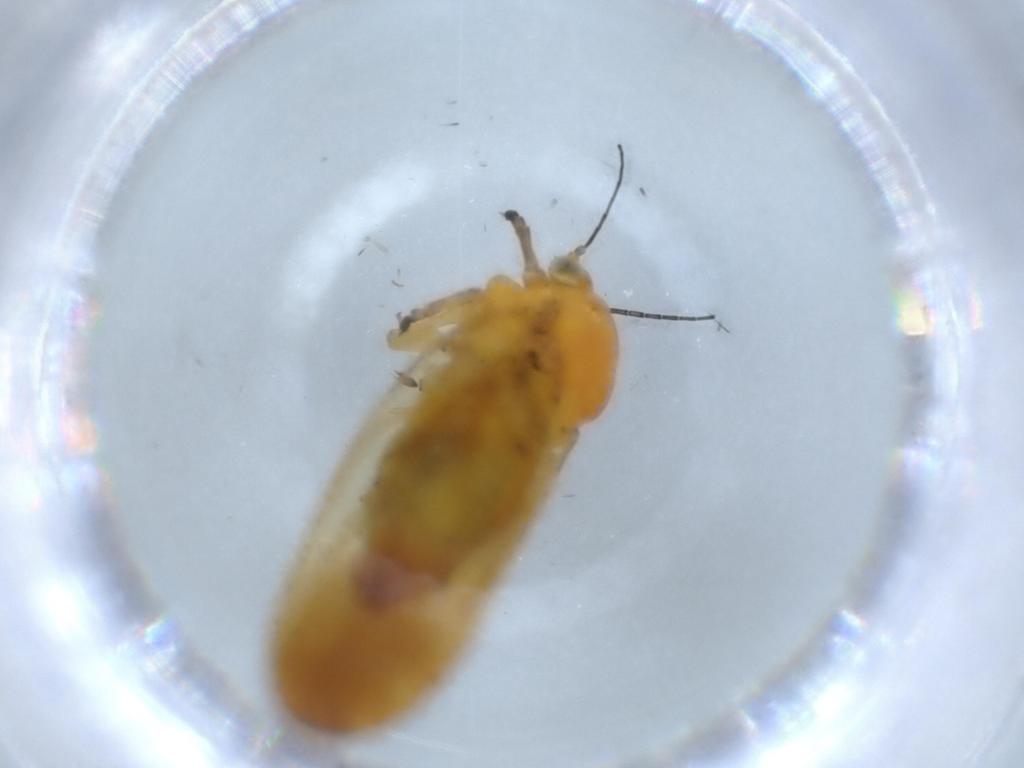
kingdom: Animalia
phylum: Arthropoda
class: Insecta
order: Hemiptera
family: Aphalaridae
